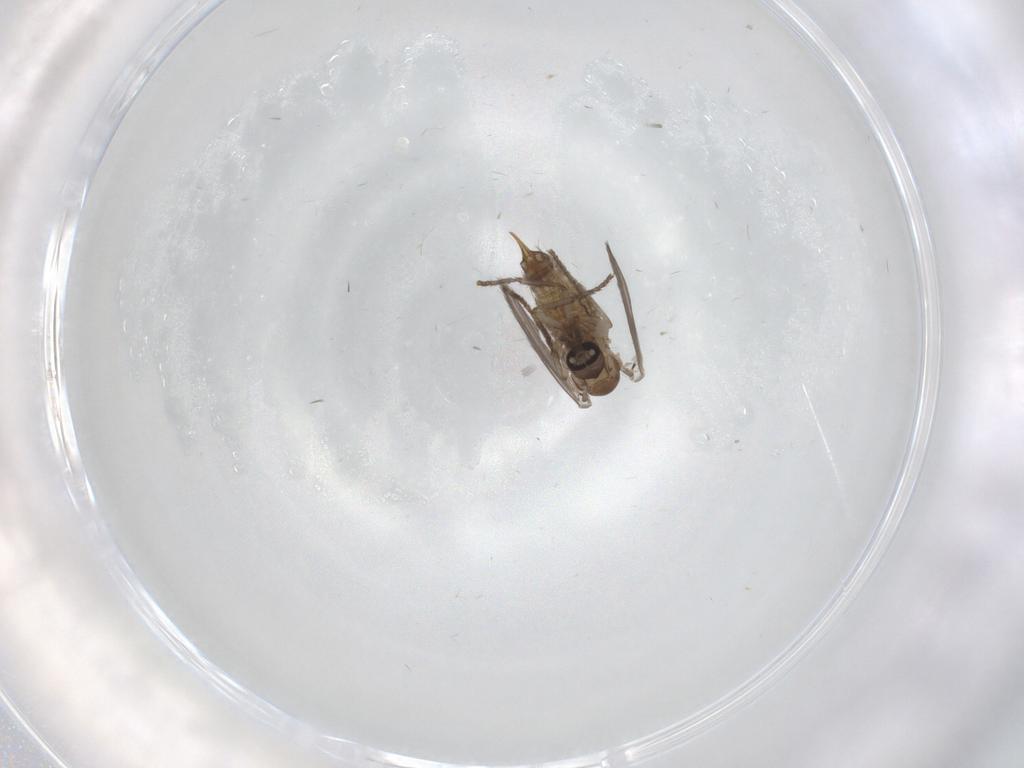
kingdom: Animalia
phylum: Arthropoda
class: Insecta
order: Diptera
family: Psychodidae
